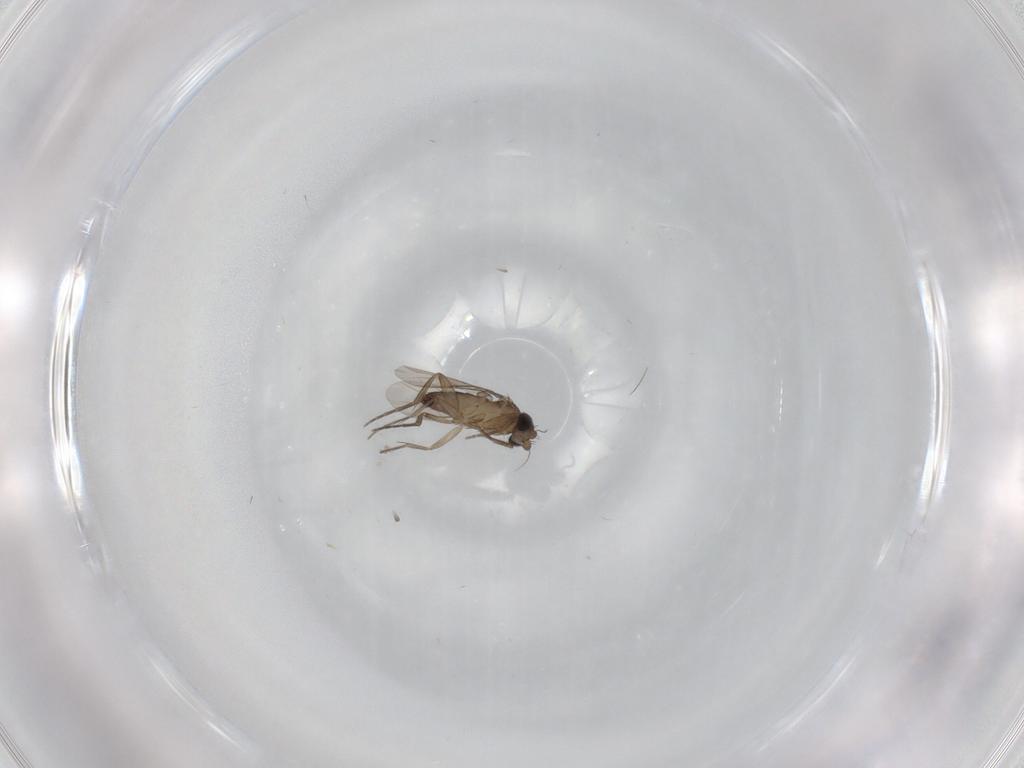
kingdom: Animalia
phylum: Arthropoda
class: Insecta
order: Diptera
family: Phoridae
